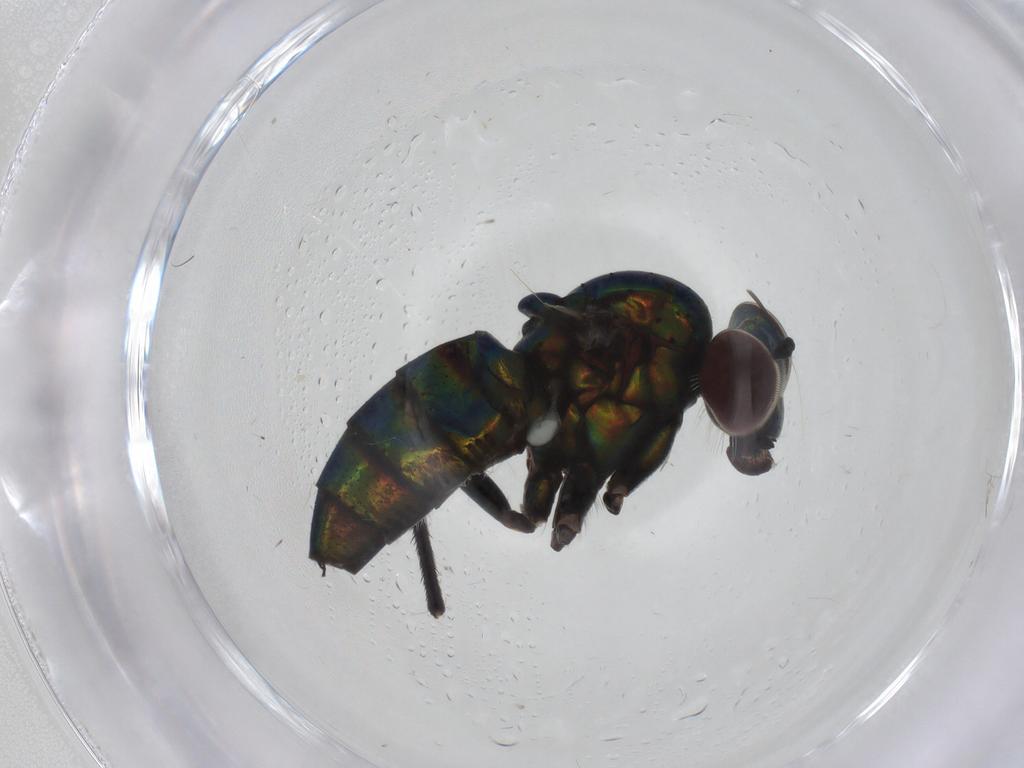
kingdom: Animalia
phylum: Arthropoda
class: Insecta
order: Diptera
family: Dolichopodidae
